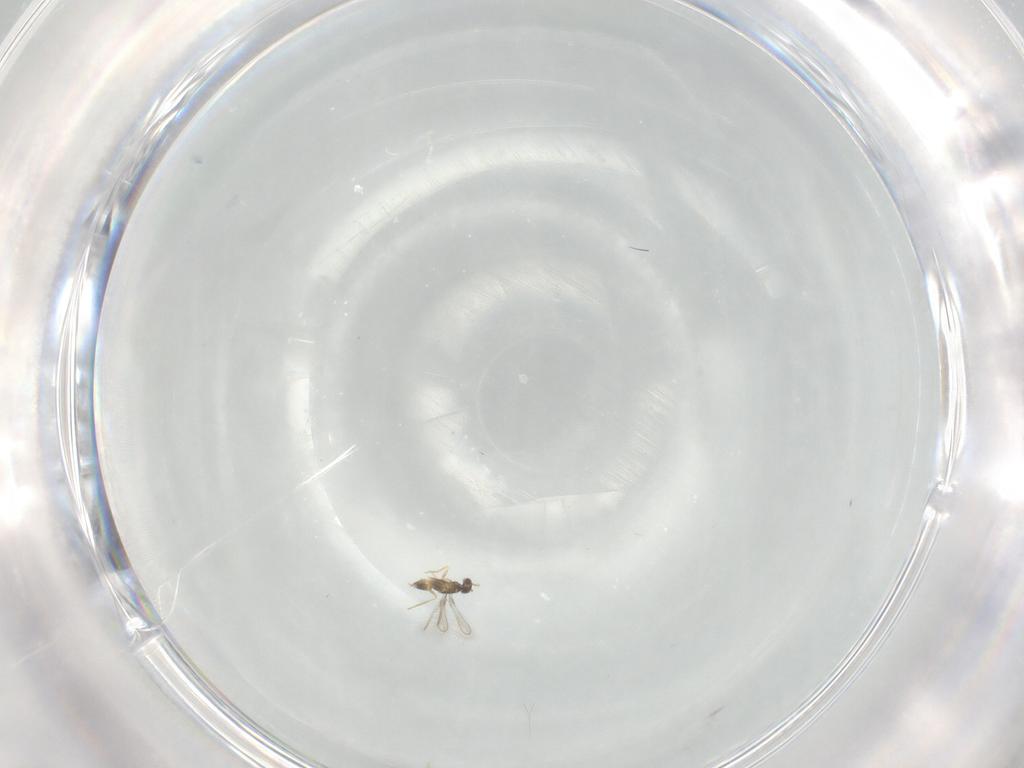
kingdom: Animalia
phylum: Arthropoda
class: Insecta
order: Hymenoptera
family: Mymaridae
